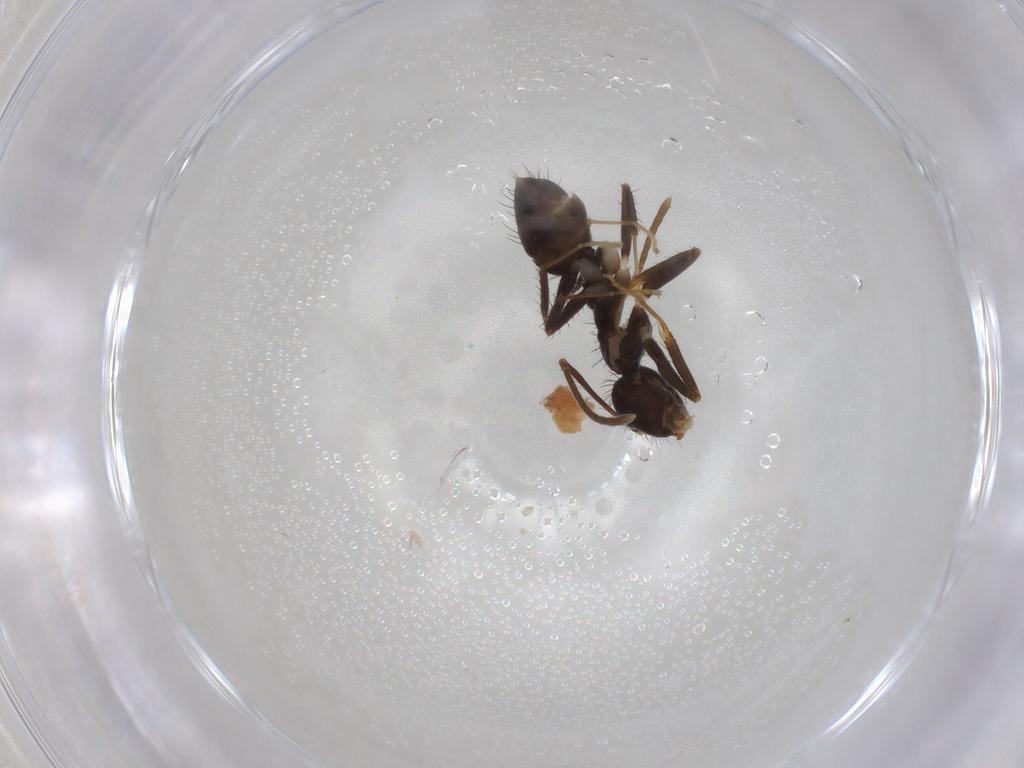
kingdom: Animalia
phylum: Arthropoda
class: Insecta
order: Hymenoptera
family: Formicidae
